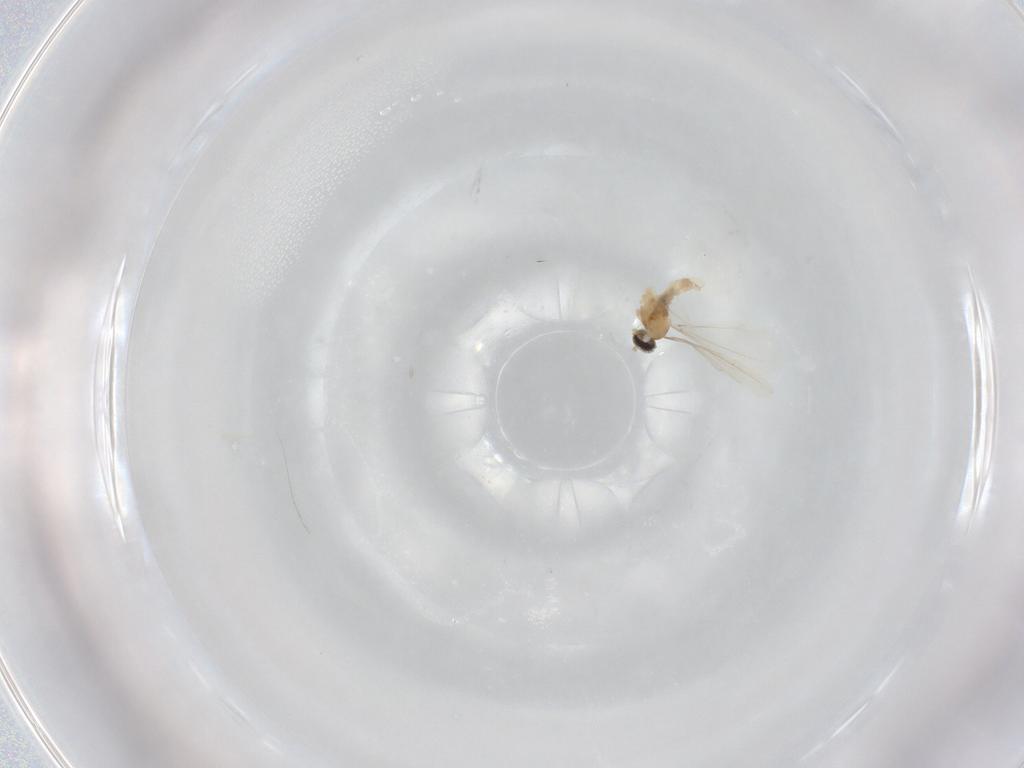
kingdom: Animalia
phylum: Arthropoda
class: Insecta
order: Diptera
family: Cecidomyiidae
